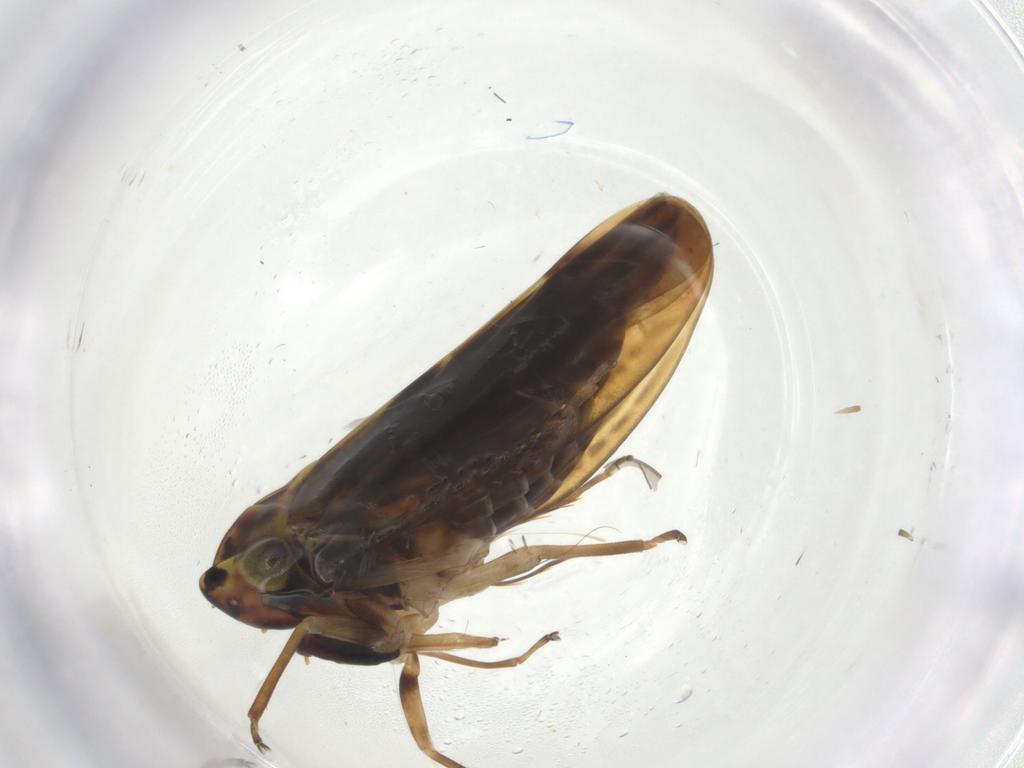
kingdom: Animalia
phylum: Arthropoda
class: Insecta
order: Hemiptera
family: Cicadellidae
